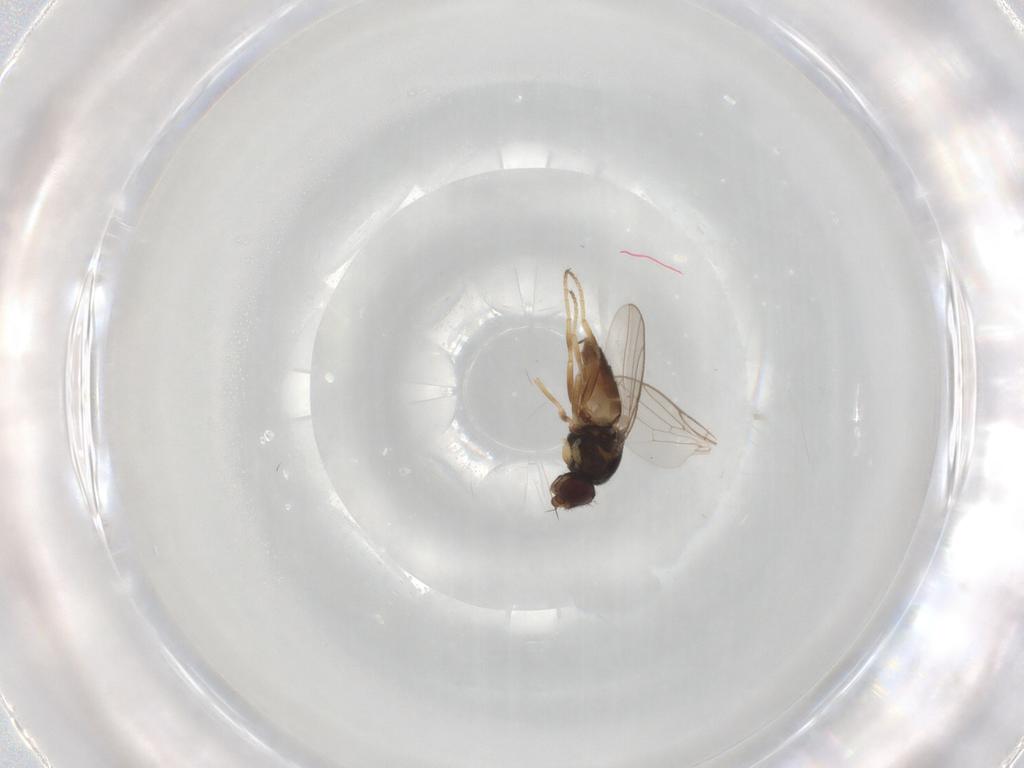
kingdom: Animalia
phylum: Arthropoda
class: Insecta
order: Diptera
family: Chloropidae
